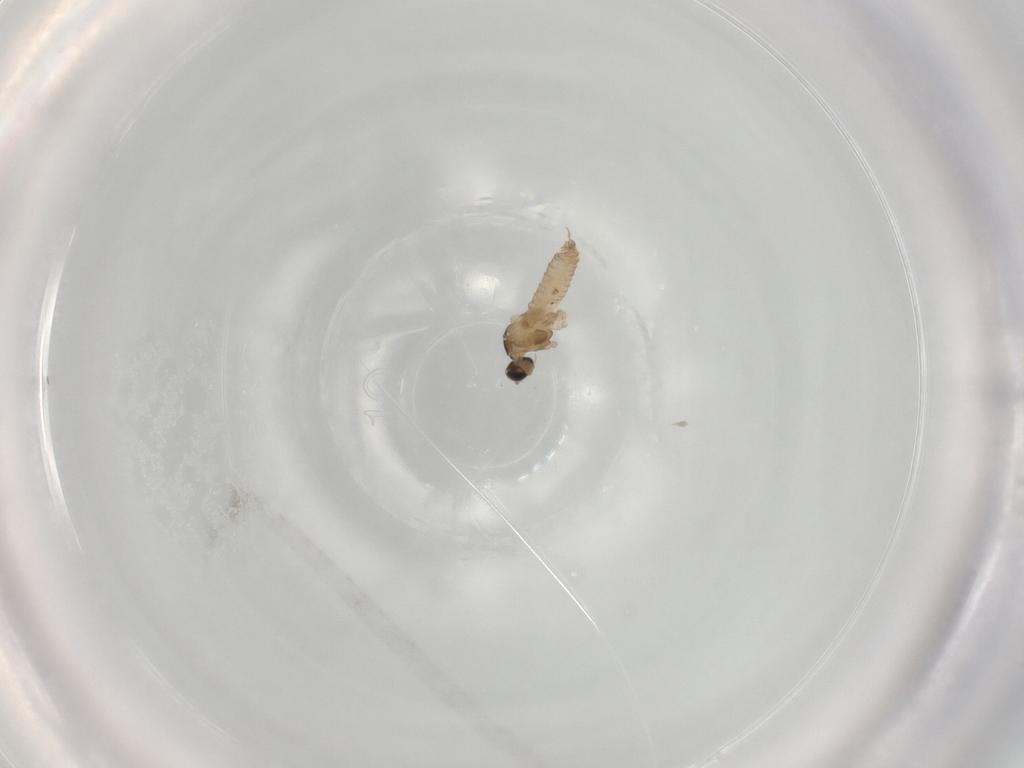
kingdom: Animalia
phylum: Arthropoda
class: Insecta
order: Diptera
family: Cecidomyiidae
